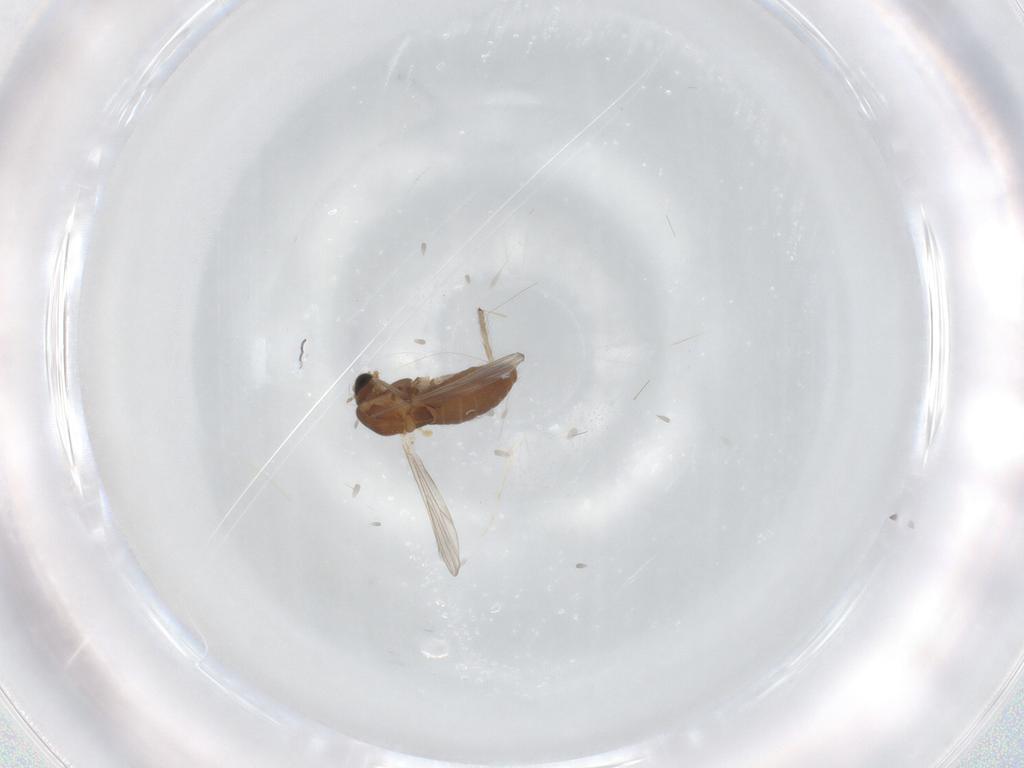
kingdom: Animalia
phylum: Arthropoda
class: Insecta
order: Diptera
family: Chironomidae
